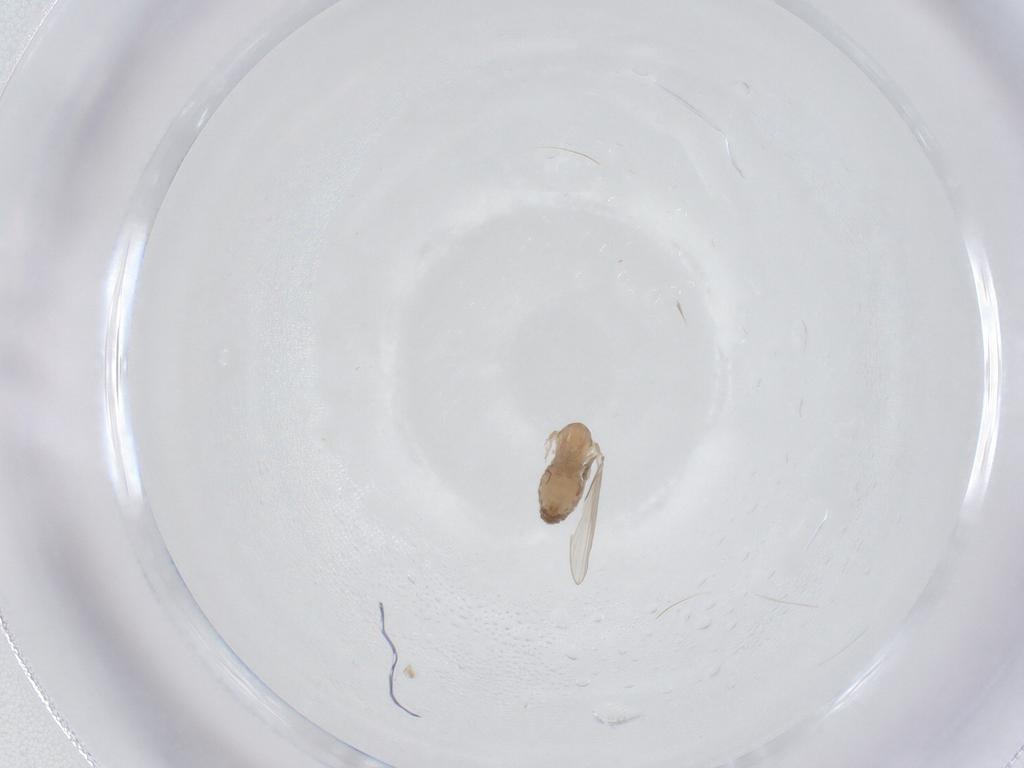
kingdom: Animalia
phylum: Arthropoda
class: Insecta
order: Diptera
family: Psychodidae
